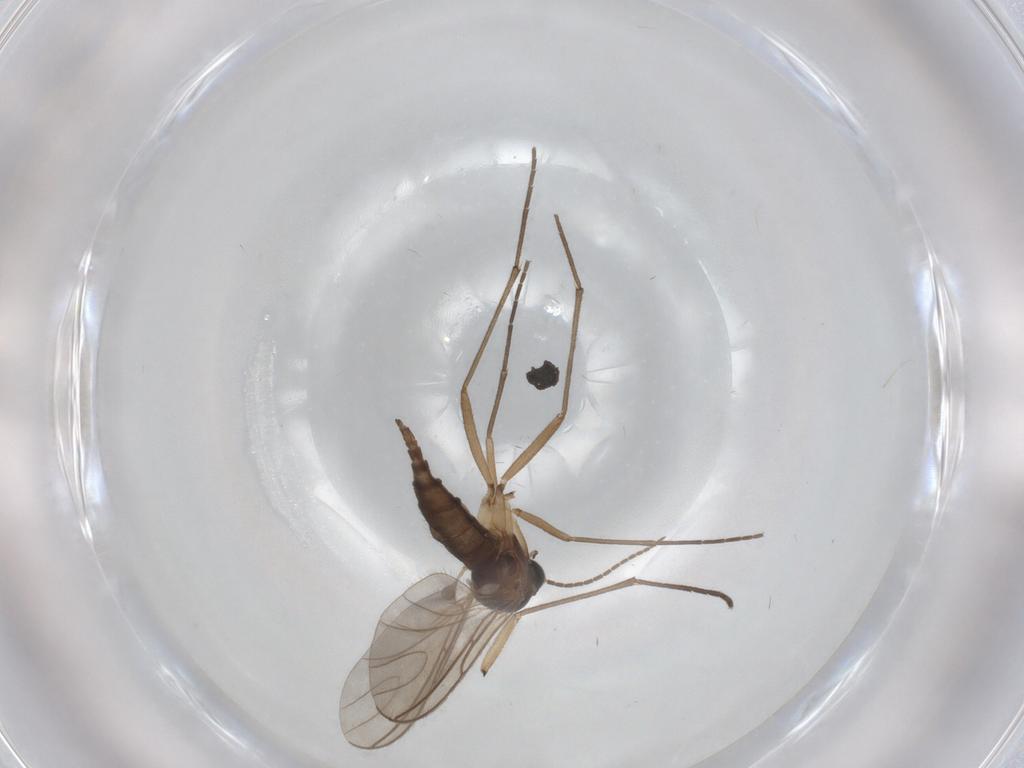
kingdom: Animalia
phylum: Arthropoda
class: Insecta
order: Diptera
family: Sciaridae
